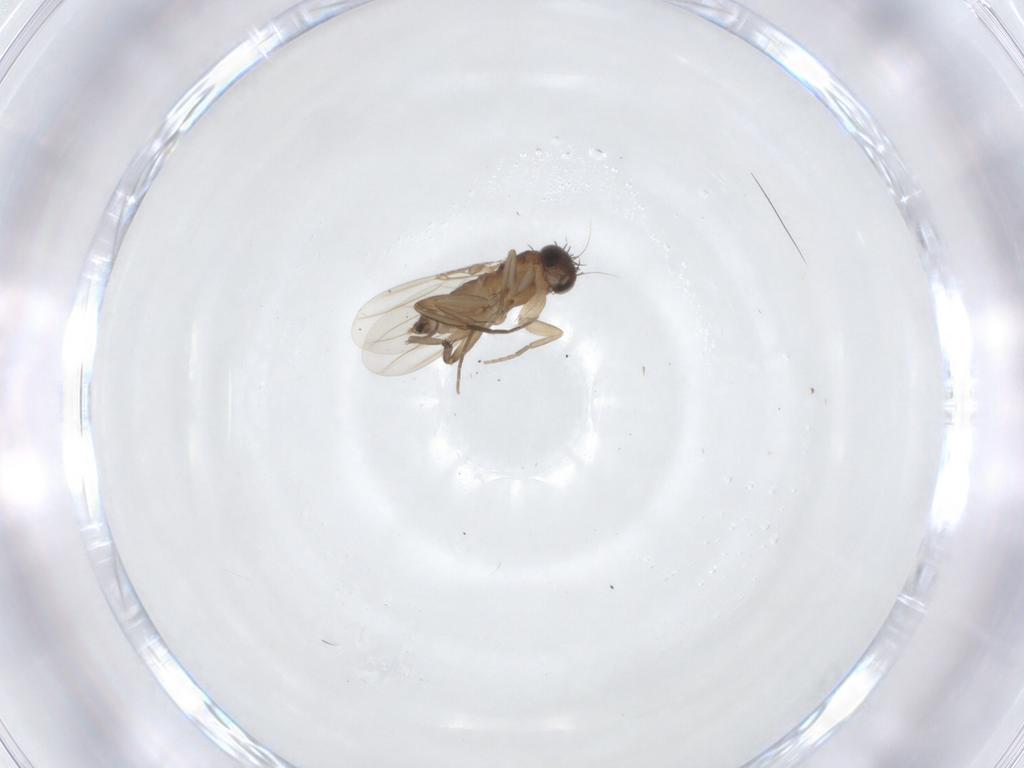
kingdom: Animalia
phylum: Arthropoda
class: Insecta
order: Diptera
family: Phoridae
